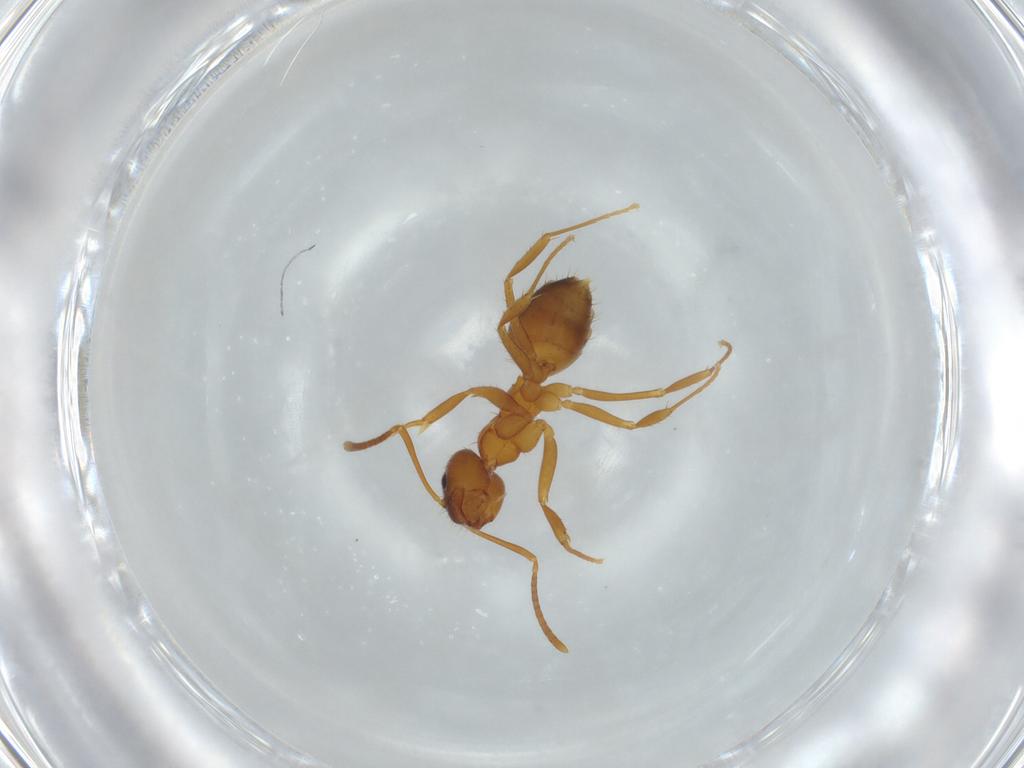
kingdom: Animalia
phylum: Arthropoda
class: Insecta
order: Hymenoptera
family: Formicidae
